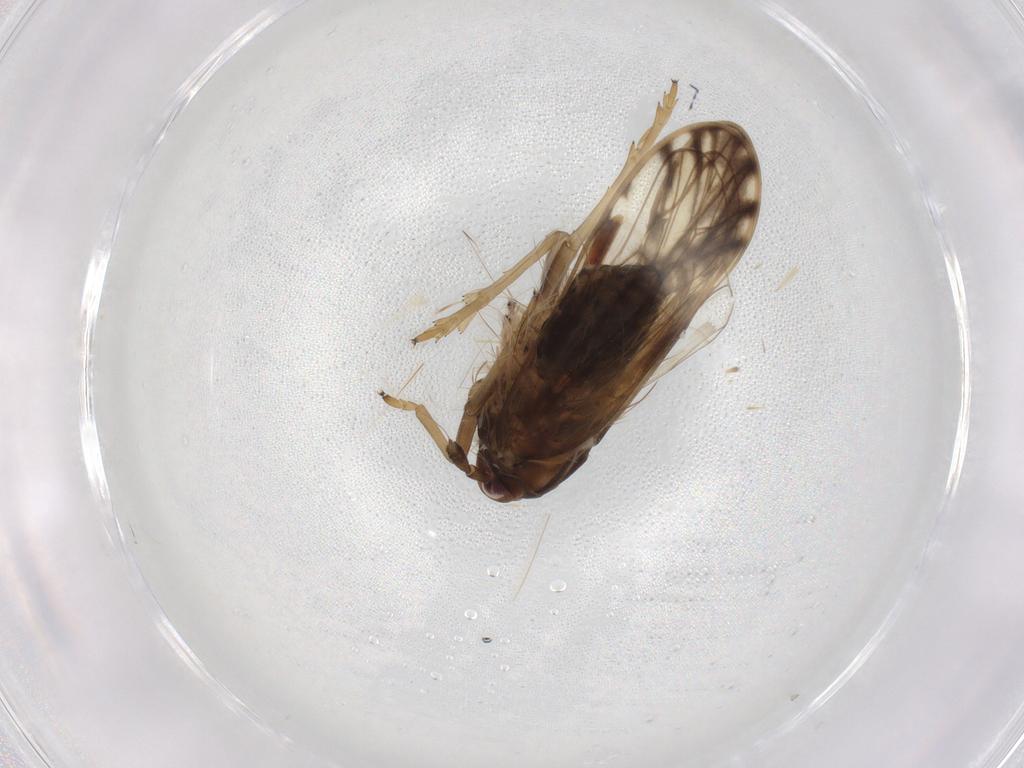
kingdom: Animalia
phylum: Arthropoda
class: Insecta
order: Hemiptera
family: Delphacidae
